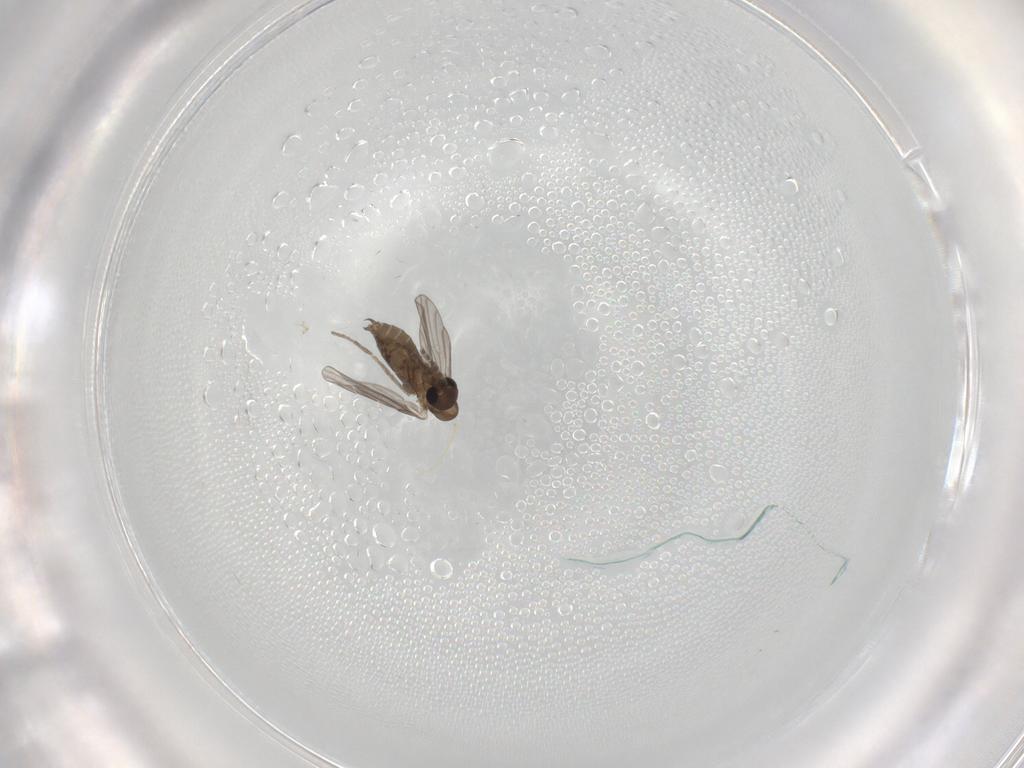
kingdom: Animalia
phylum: Arthropoda
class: Insecta
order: Diptera
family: Psychodidae
